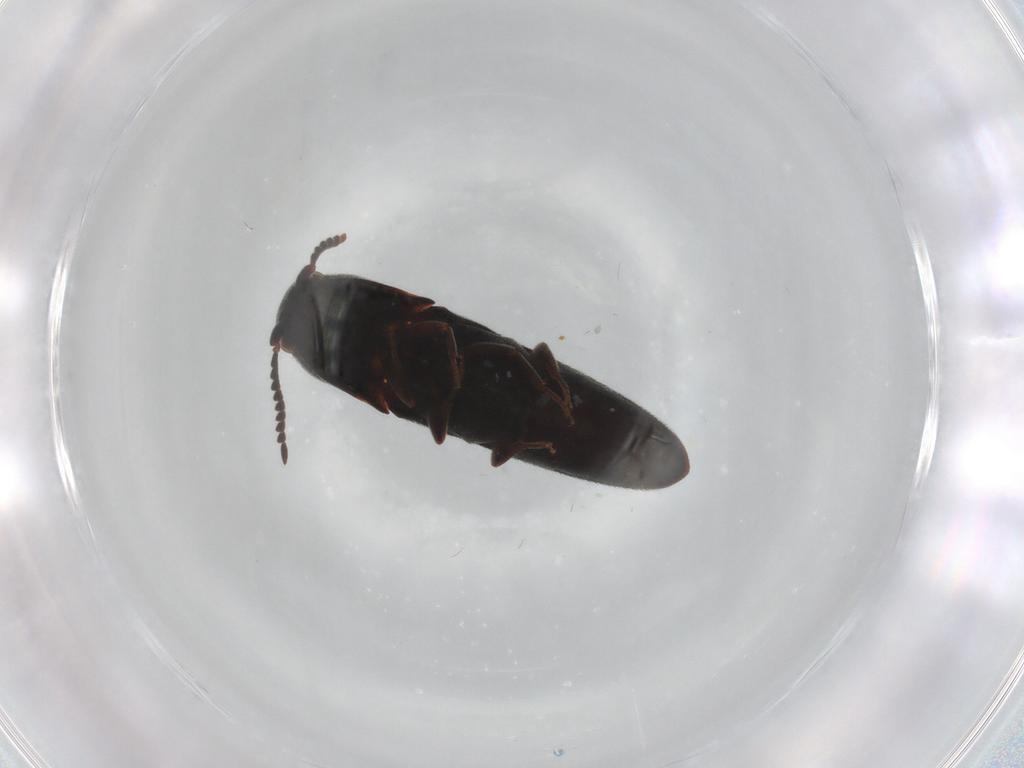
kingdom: Animalia
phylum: Arthropoda
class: Insecta
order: Coleoptera
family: Eucnemidae
